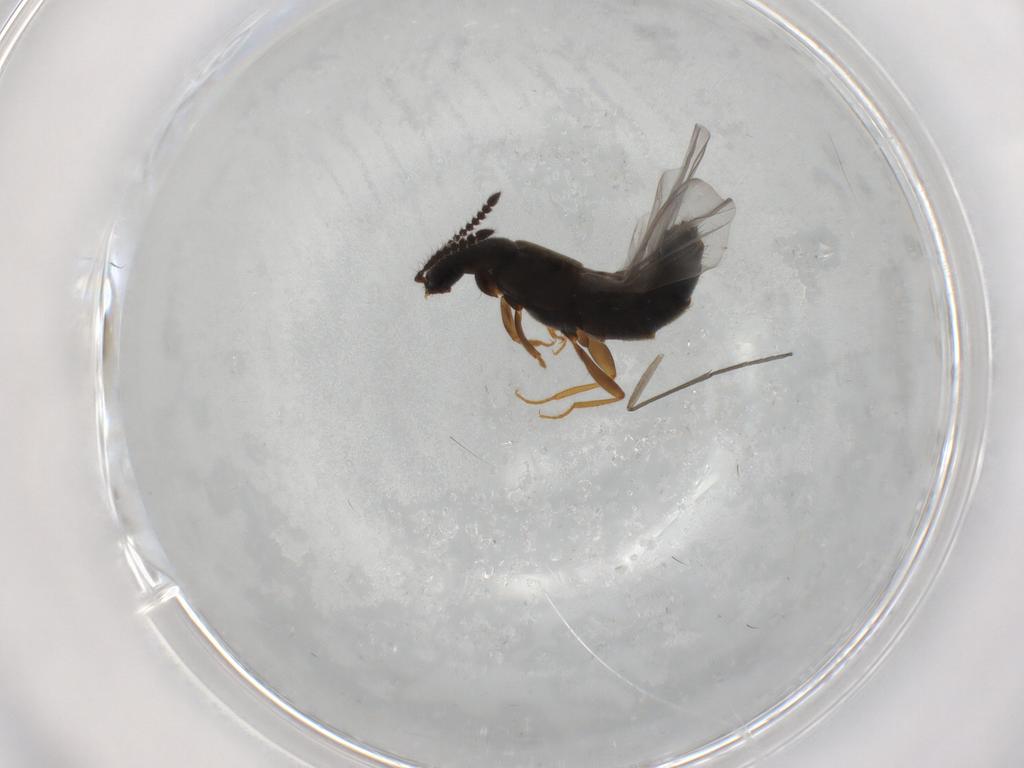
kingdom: Animalia
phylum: Arthropoda
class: Insecta
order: Coleoptera
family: Staphylinidae
